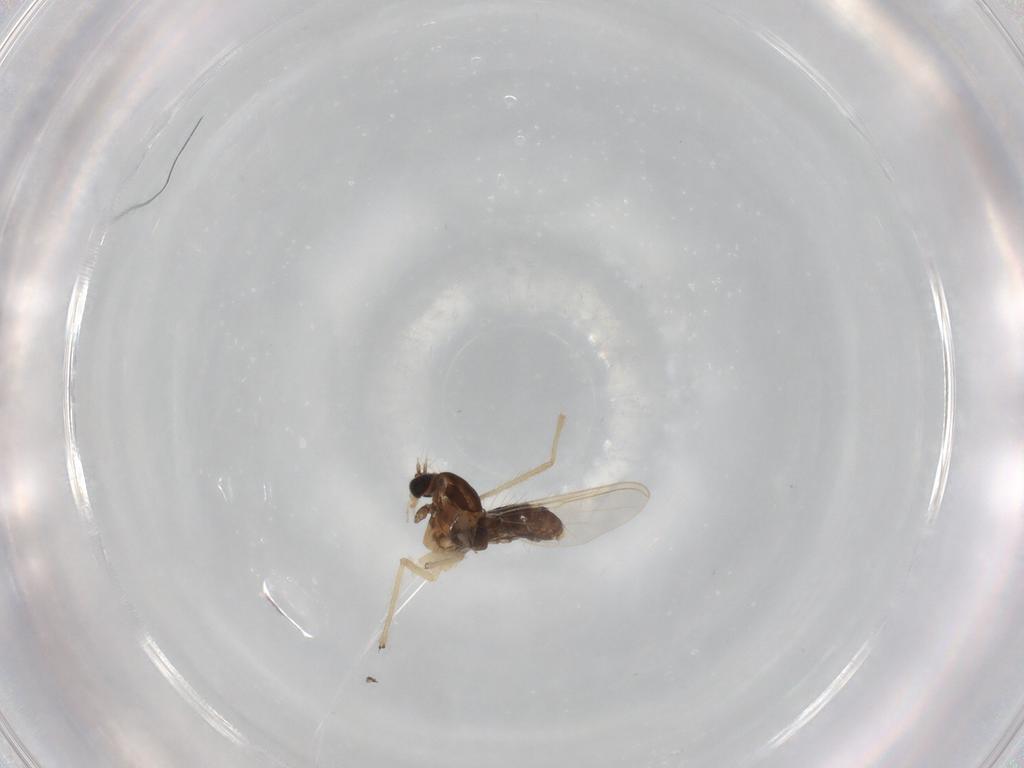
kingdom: Animalia
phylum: Arthropoda
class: Insecta
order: Diptera
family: Chironomidae
